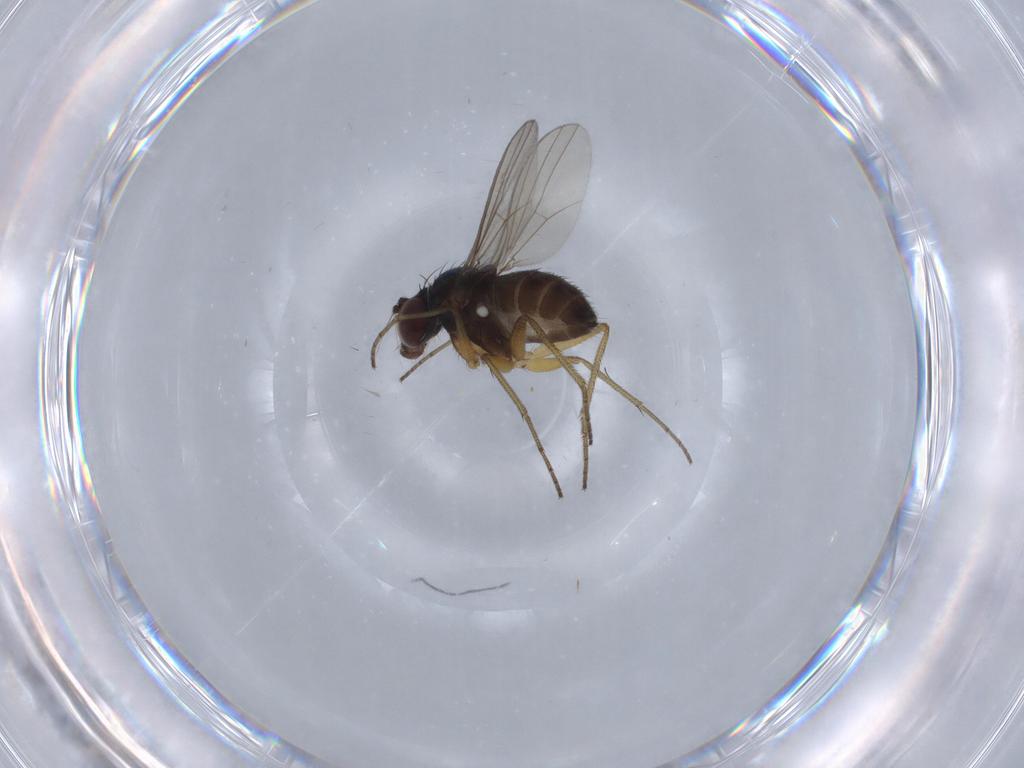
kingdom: Animalia
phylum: Arthropoda
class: Insecta
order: Diptera
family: Dolichopodidae
